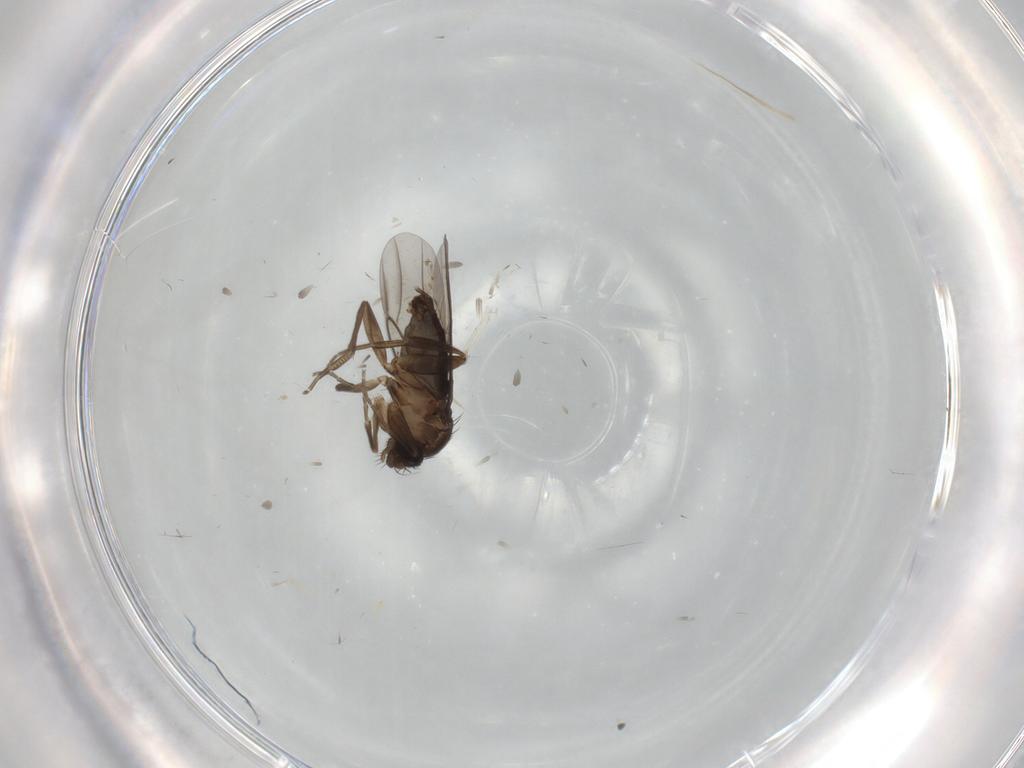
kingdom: Animalia
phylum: Arthropoda
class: Insecta
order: Diptera
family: Phoridae
